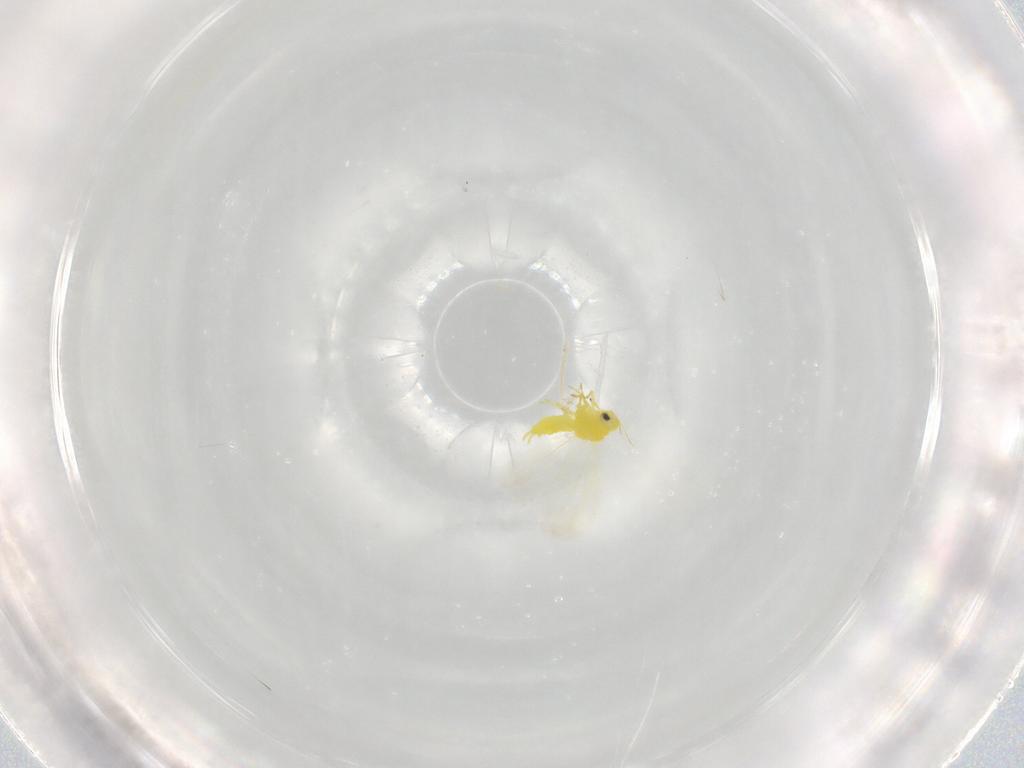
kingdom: Animalia
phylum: Arthropoda
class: Insecta
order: Hemiptera
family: Aleyrodidae
